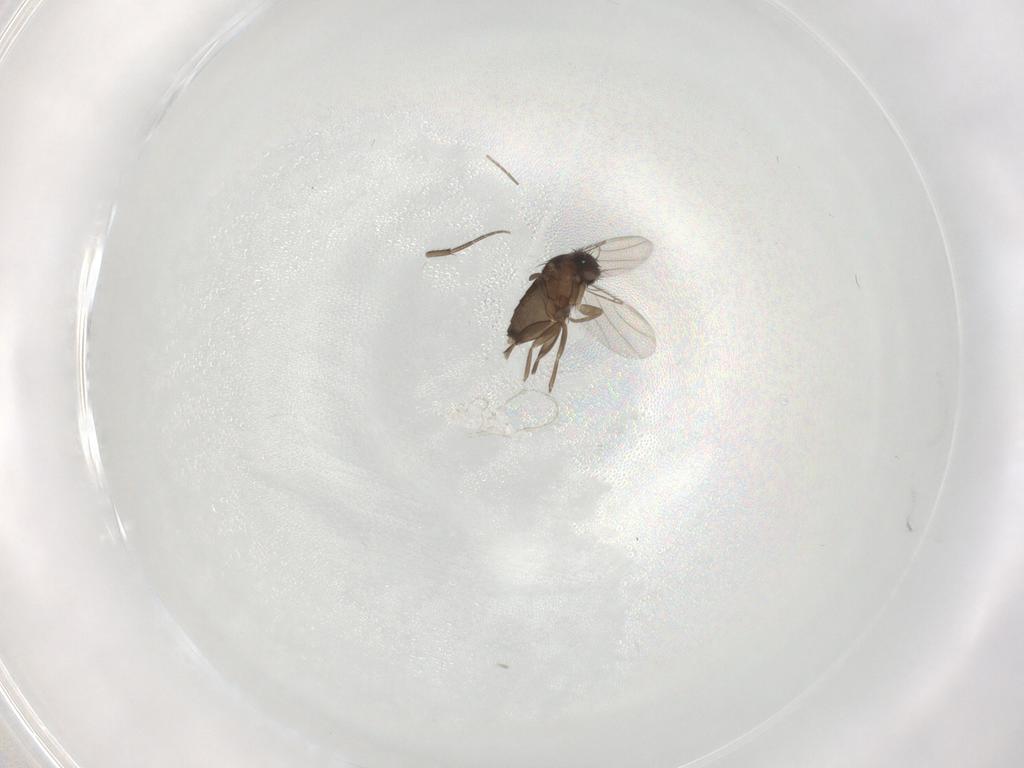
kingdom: Animalia
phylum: Arthropoda
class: Insecta
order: Diptera
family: Phoridae
